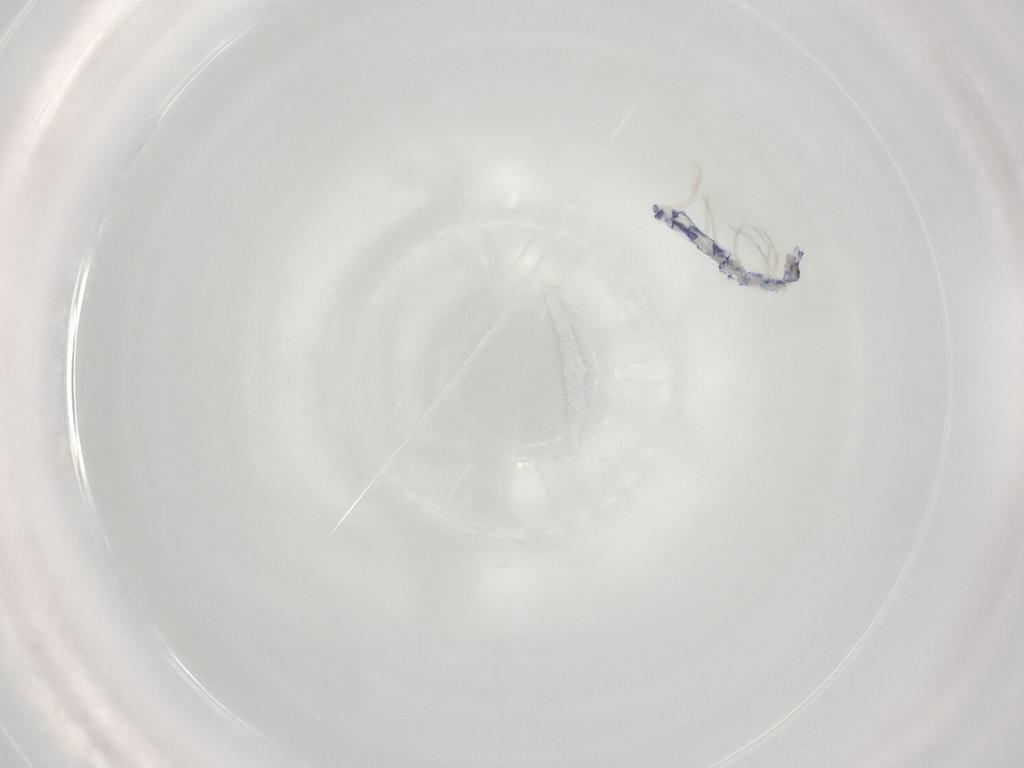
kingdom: Animalia
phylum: Arthropoda
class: Collembola
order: Entomobryomorpha
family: Entomobryidae
